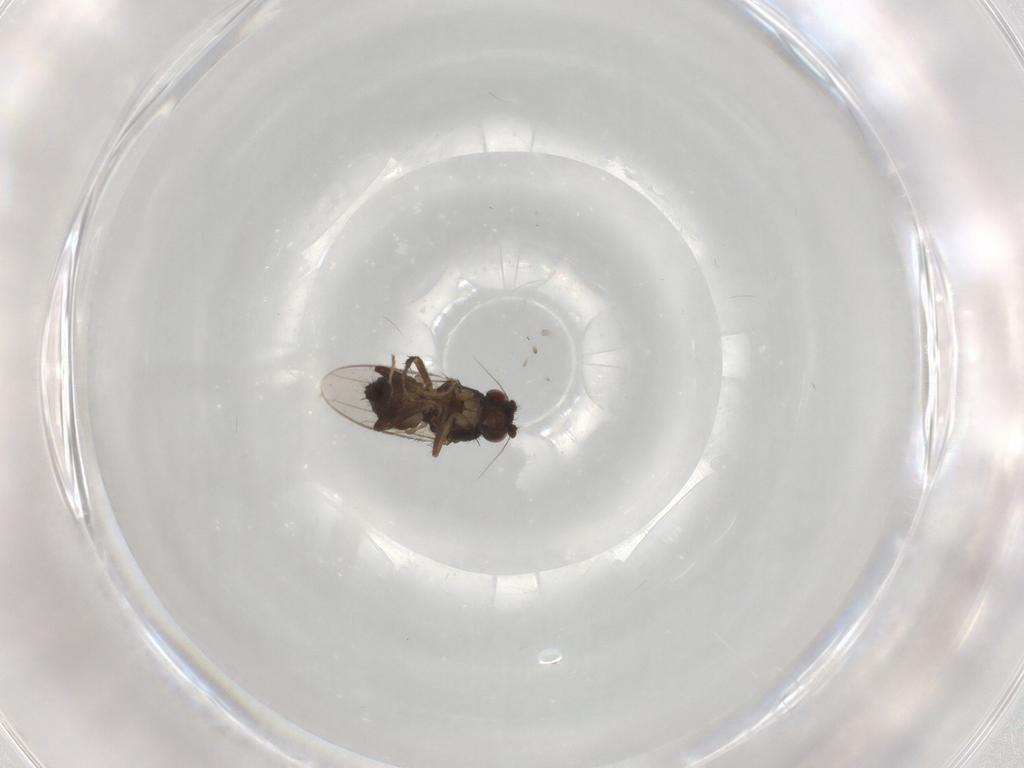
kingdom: Animalia
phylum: Arthropoda
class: Insecta
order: Diptera
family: Sphaeroceridae
